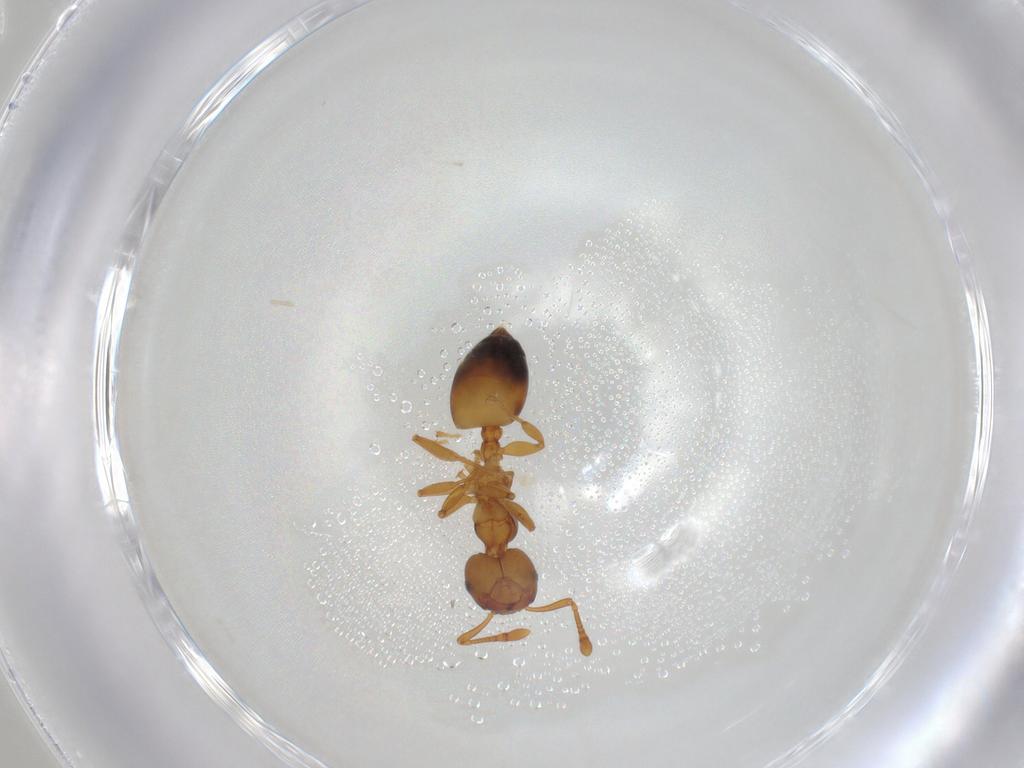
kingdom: Animalia
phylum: Arthropoda
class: Insecta
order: Hymenoptera
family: Formicidae
